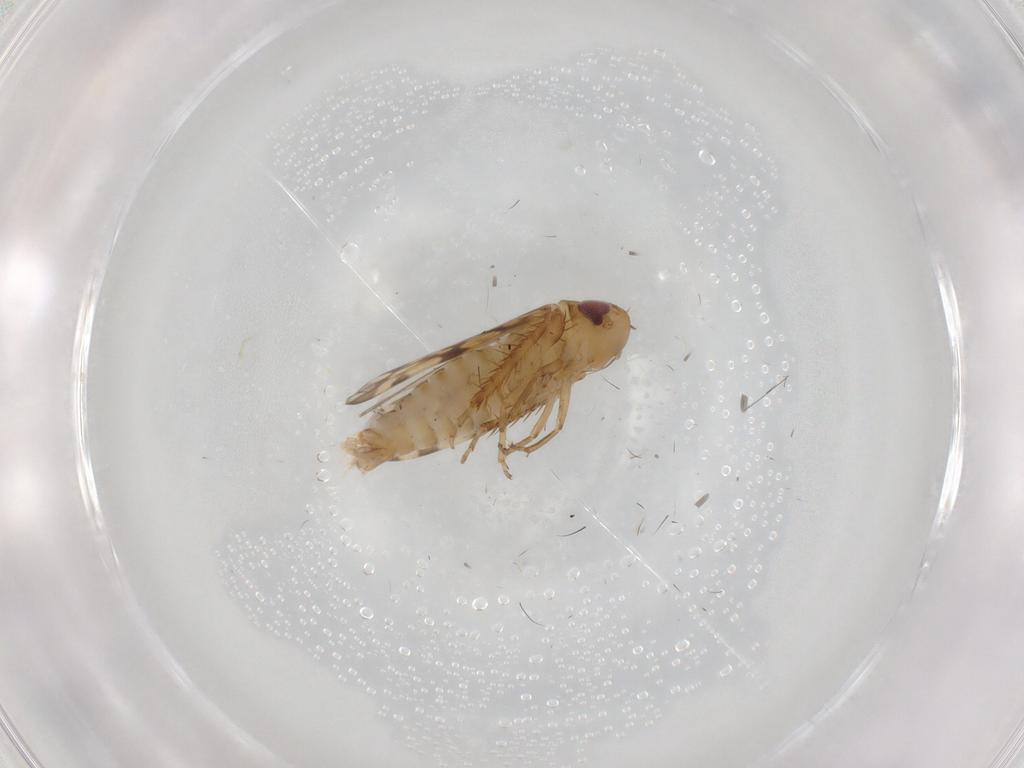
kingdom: Animalia
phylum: Arthropoda
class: Insecta
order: Hemiptera
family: Cicadellidae
